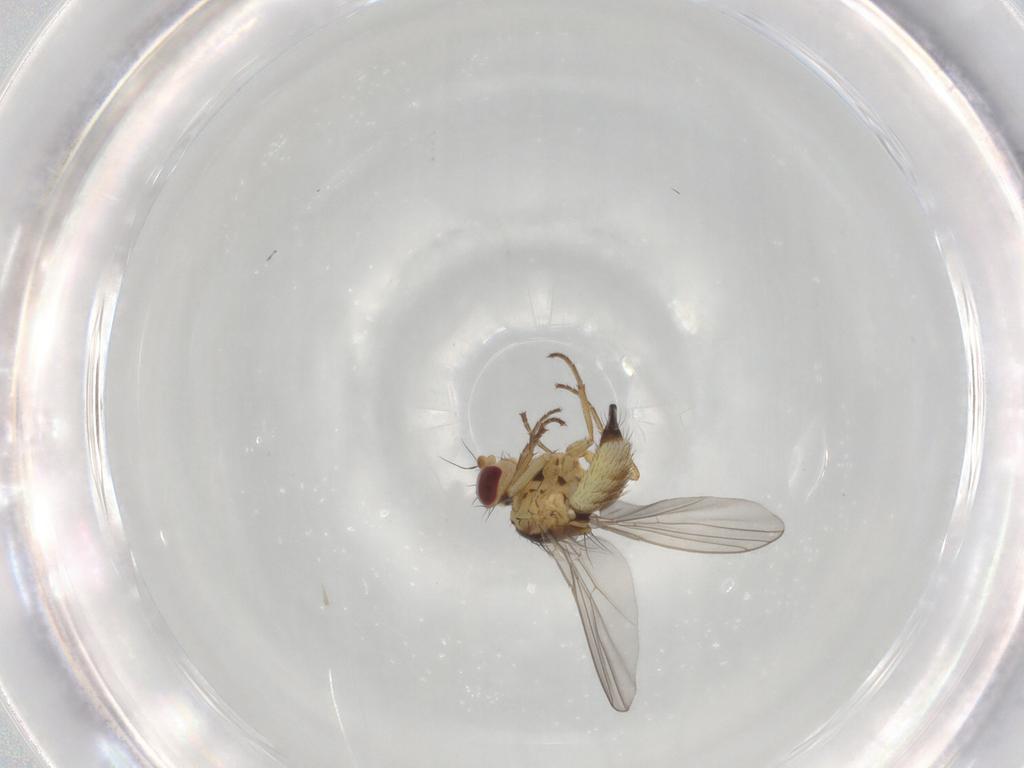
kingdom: Animalia
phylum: Arthropoda
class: Insecta
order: Diptera
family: Agromyzidae
